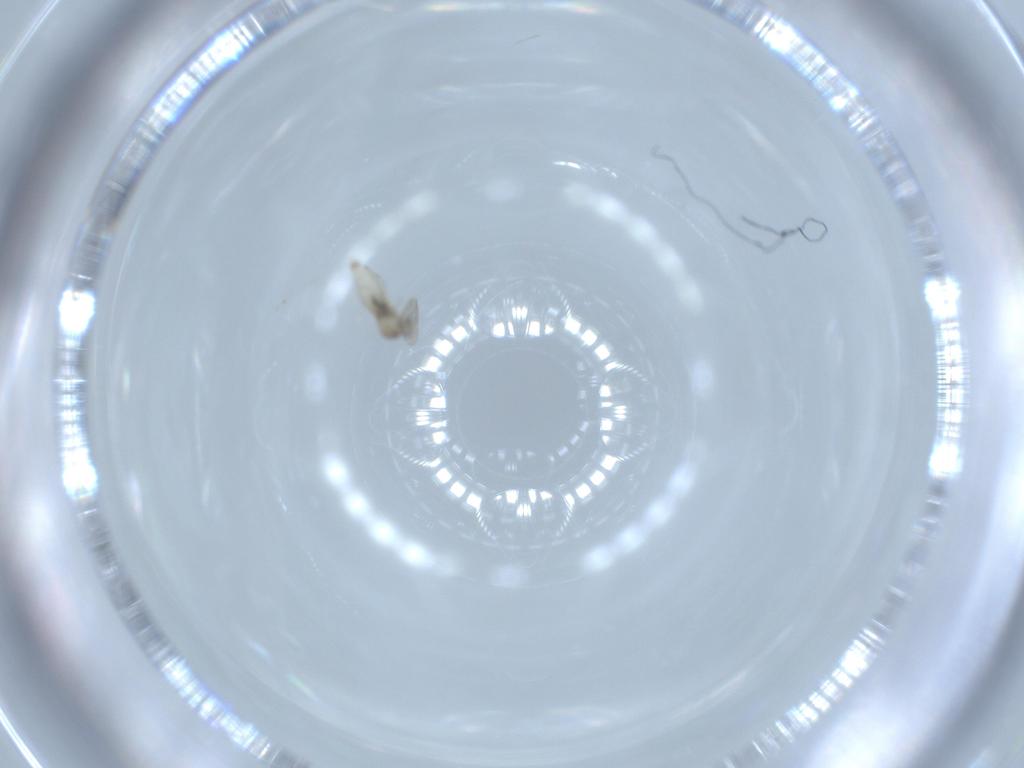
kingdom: Animalia
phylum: Arthropoda
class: Insecta
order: Diptera
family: Cecidomyiidae
